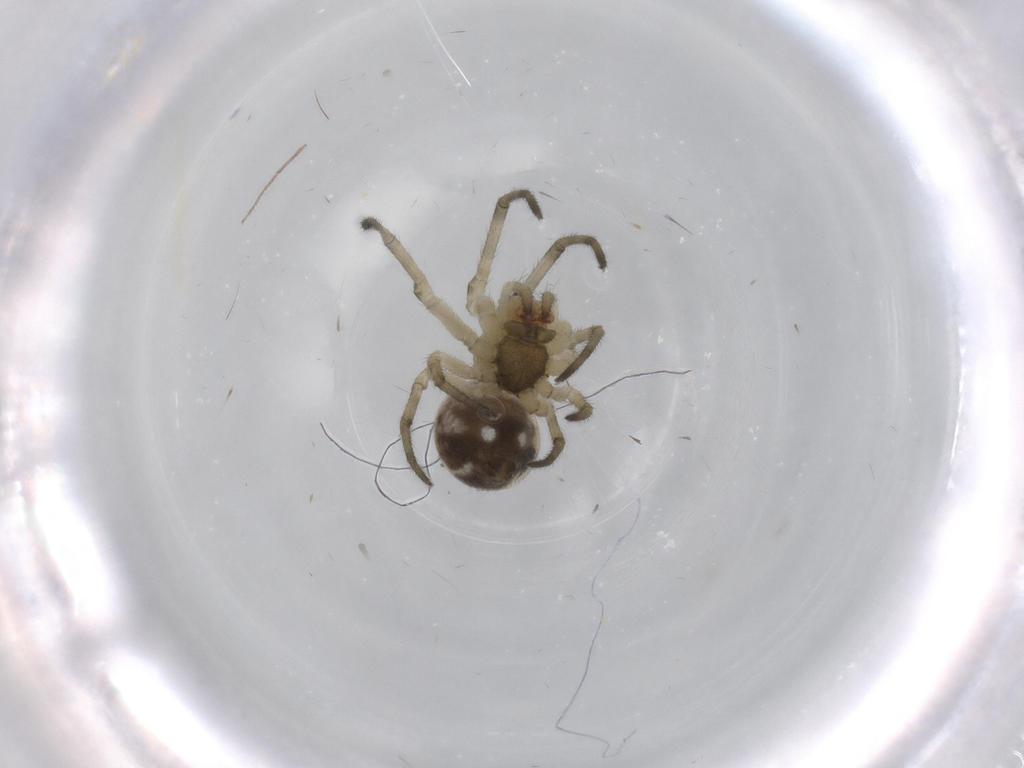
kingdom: Animalia
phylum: Arthropoda
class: Arachnida
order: Araneae
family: Tetragnathidae
